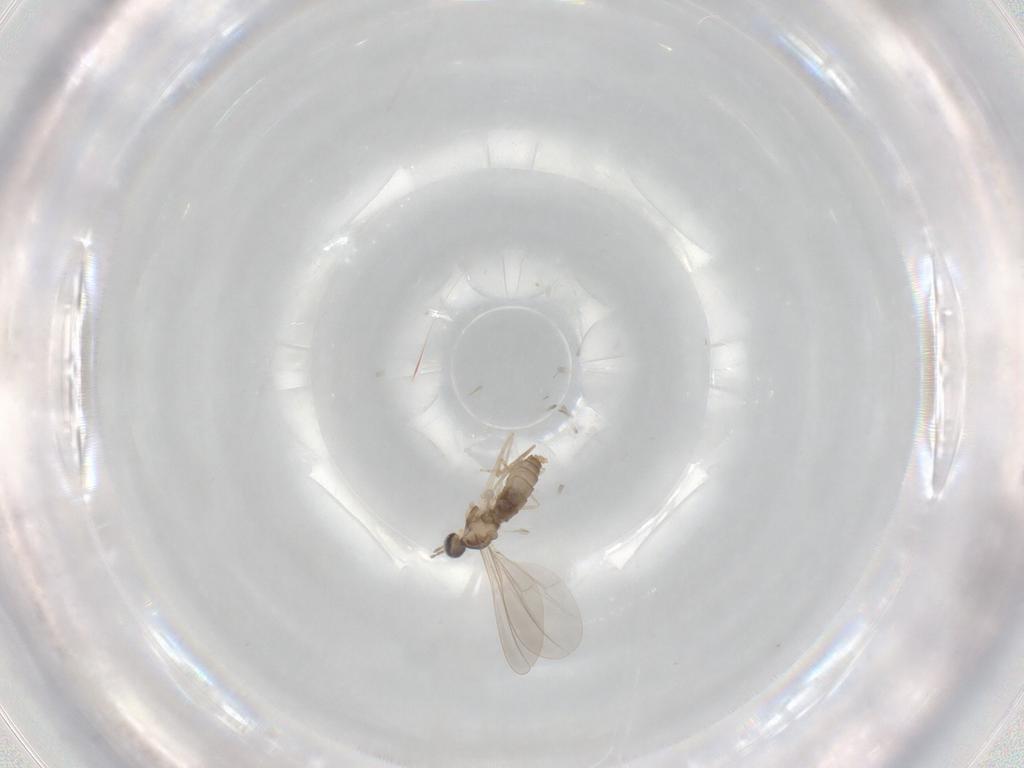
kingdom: Animalia
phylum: Arthropoda
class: Insecta
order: Diptera
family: Cecidomyiidae
